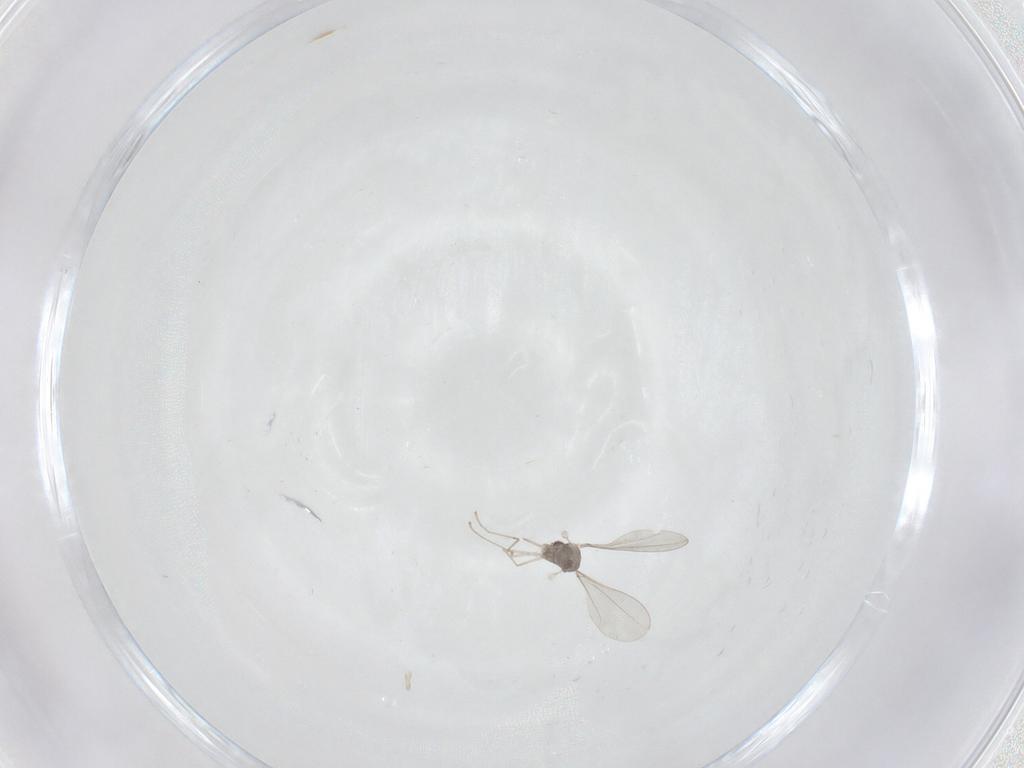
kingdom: Animalia
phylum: Arthropoda
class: Insecta
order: Diptera
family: Cecidomyiidae
